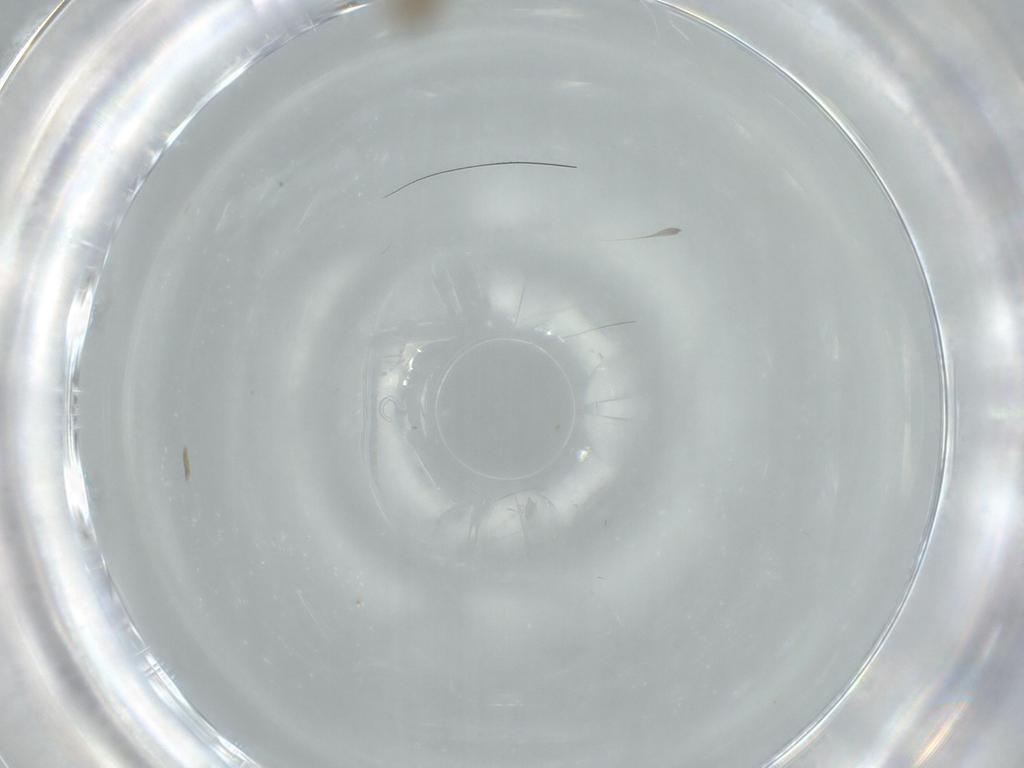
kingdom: Animalia
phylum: Arthropoda
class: Insecta
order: Diptera
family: Cecidomyiidae
